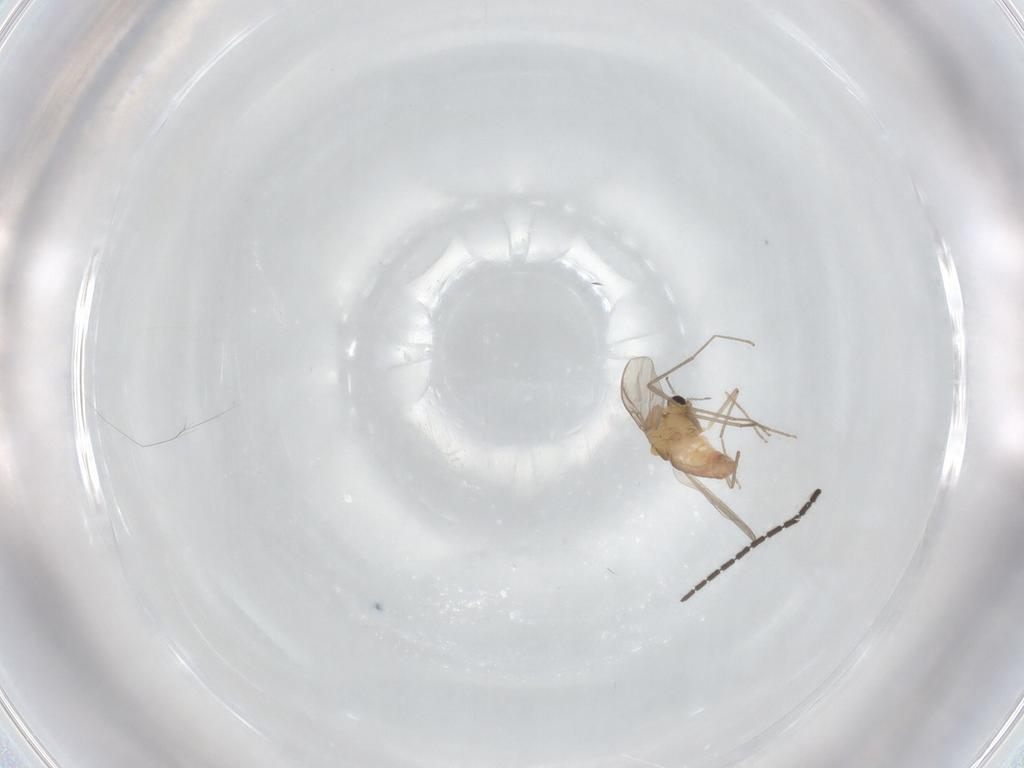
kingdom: Animalia
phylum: Arthropoda
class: Insecta
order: Diptera
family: Chironomidae
